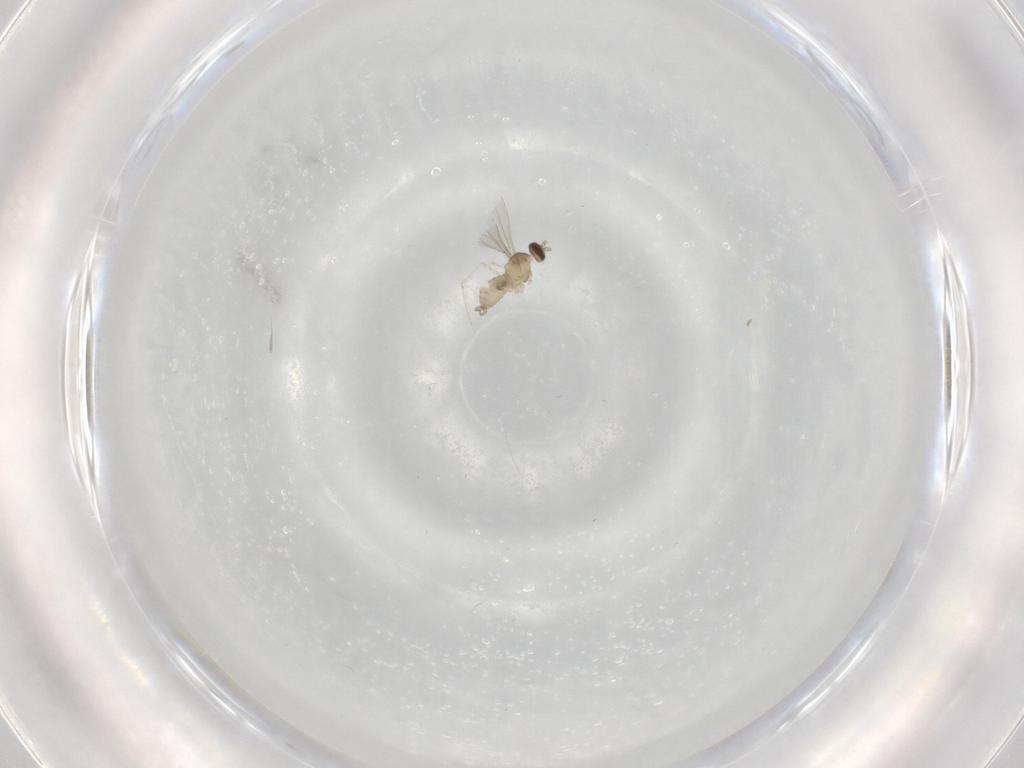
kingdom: Animalia
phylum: Arthropoda
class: Insecta
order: Diptera
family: Cecidomyiidae
